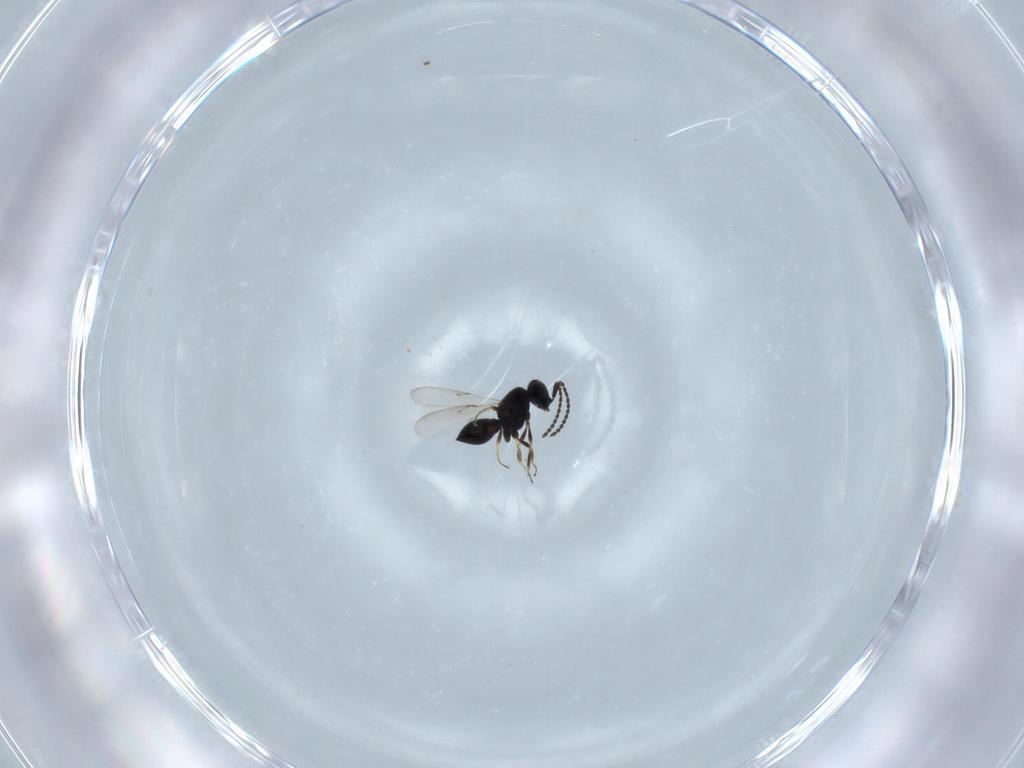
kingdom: Animalia
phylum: Arthropoda
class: Insecta
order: Hymenoptera
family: Scelionidae
